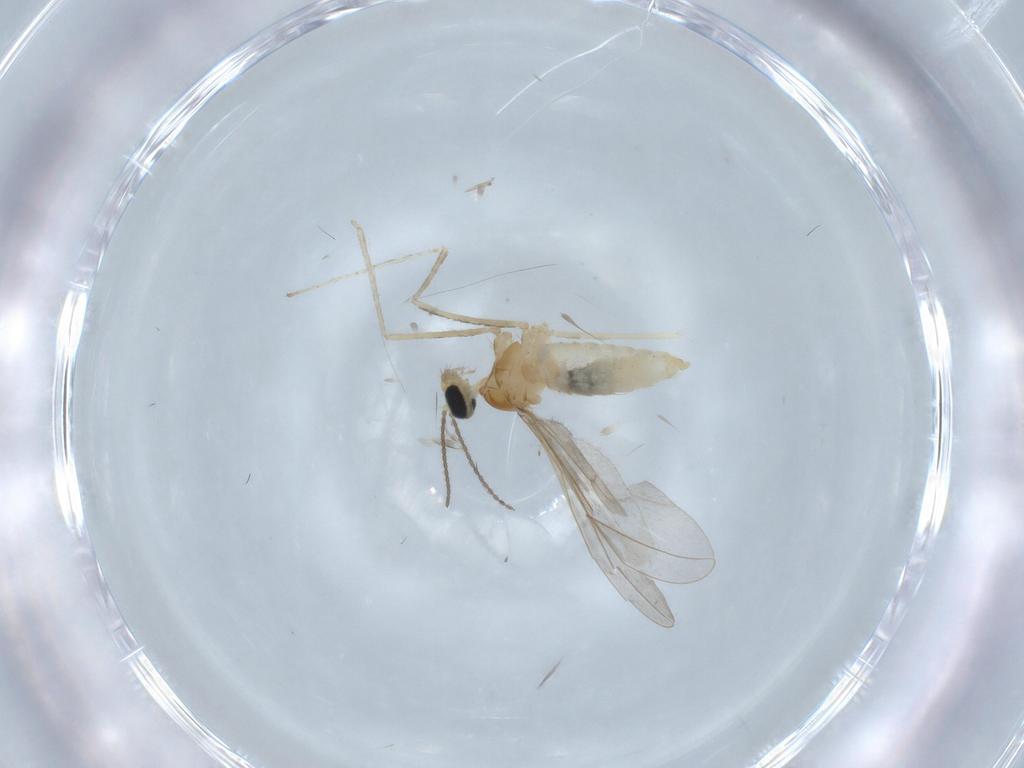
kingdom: Animalia
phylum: Arthropoda
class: Insecta
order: Diptera
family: Cecidomyiidae
